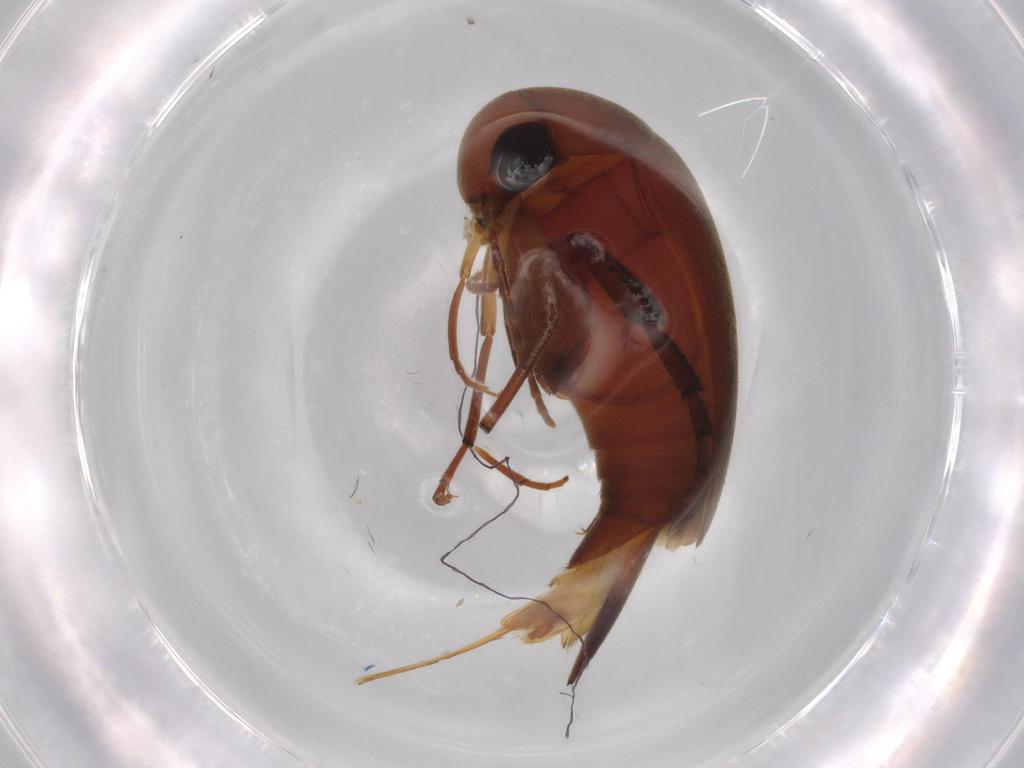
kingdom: Animalia
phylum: Arthropoda
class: Insecta
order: Coleoptera
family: Mordellidae
